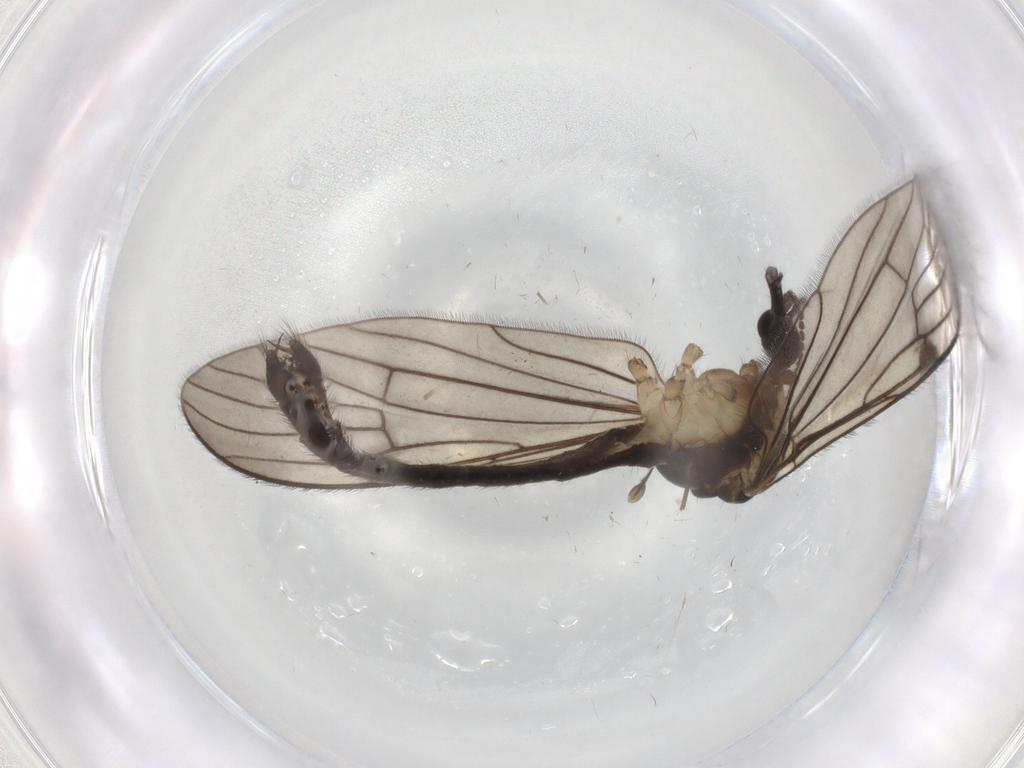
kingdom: Animalia
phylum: Arthropoda
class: Insecta
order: Diptera
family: Limoniidae
